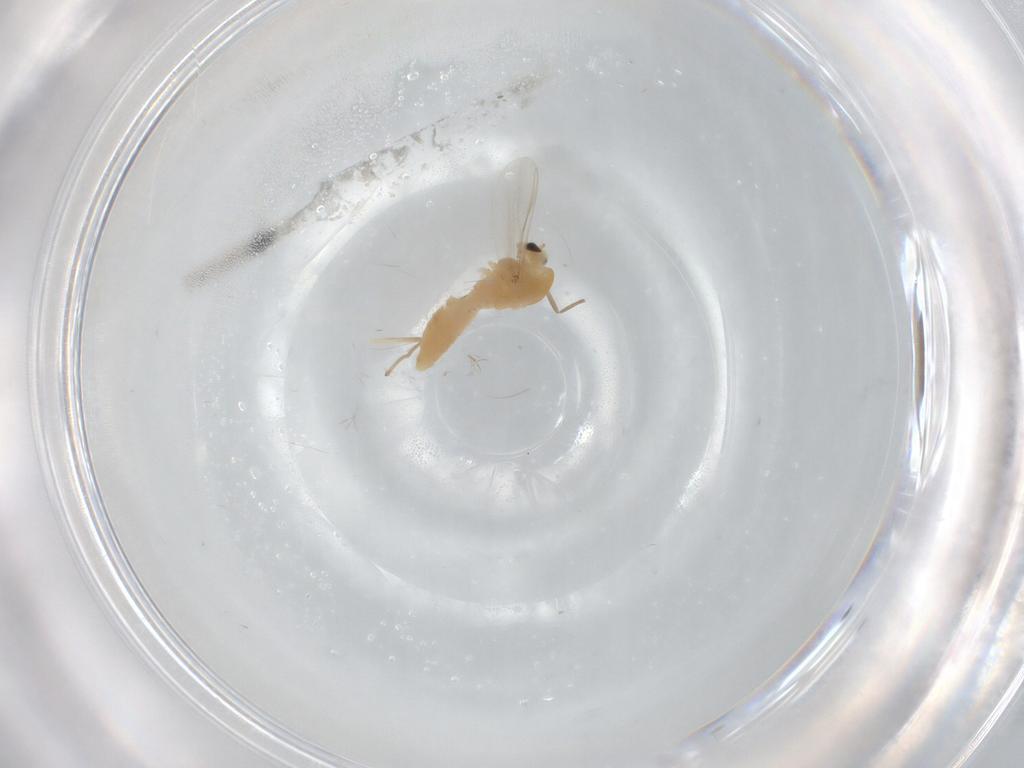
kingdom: Animalia
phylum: Arthropoda
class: Insecta
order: Diptera
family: Chironomidae
